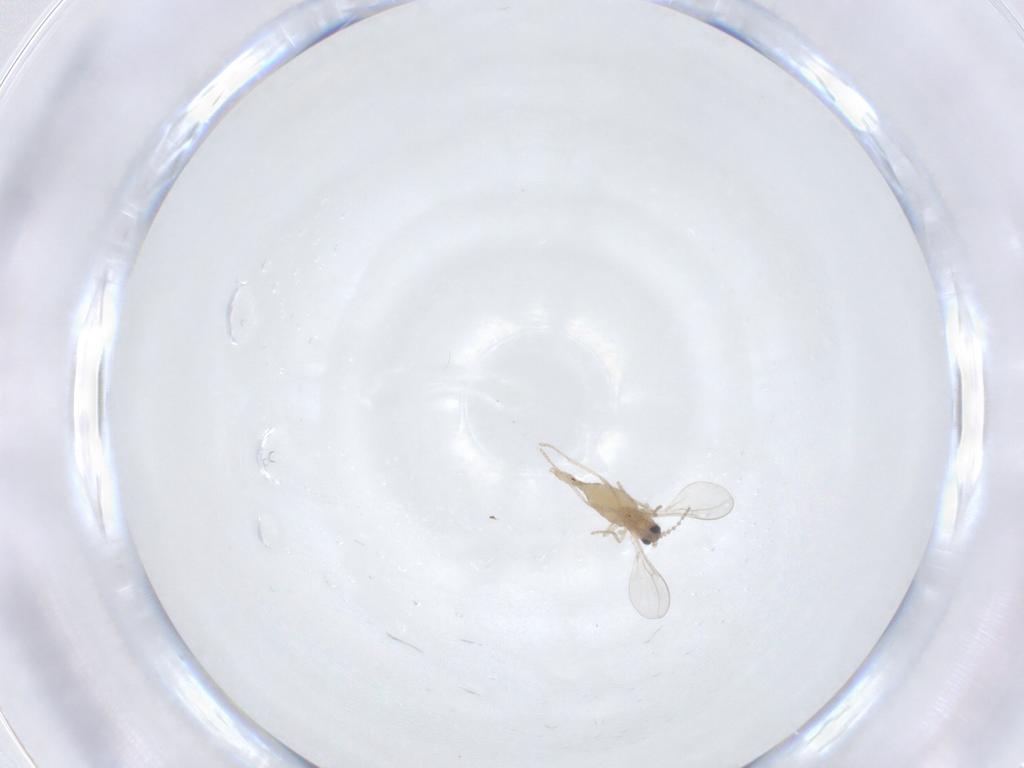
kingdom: Animalia
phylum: Arthropoda
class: Insecta
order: Diptera
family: Cecidomyiidae
